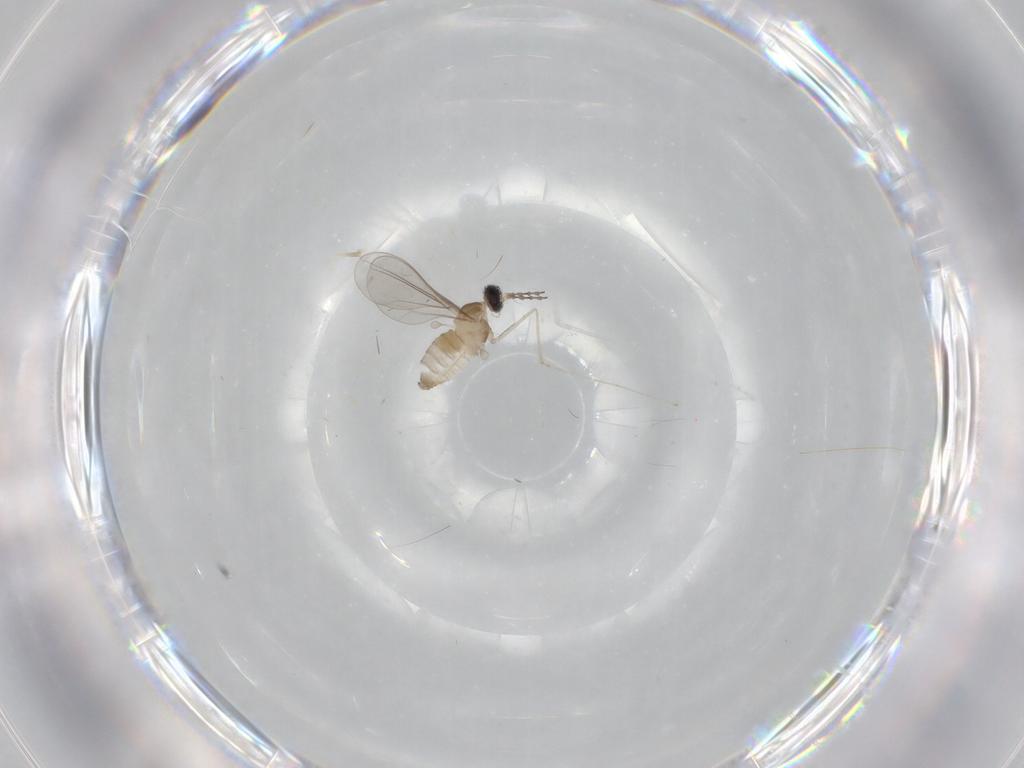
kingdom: Animalia
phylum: Arthropoda
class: Insecta
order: Diptera
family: Cecidomyiidae
